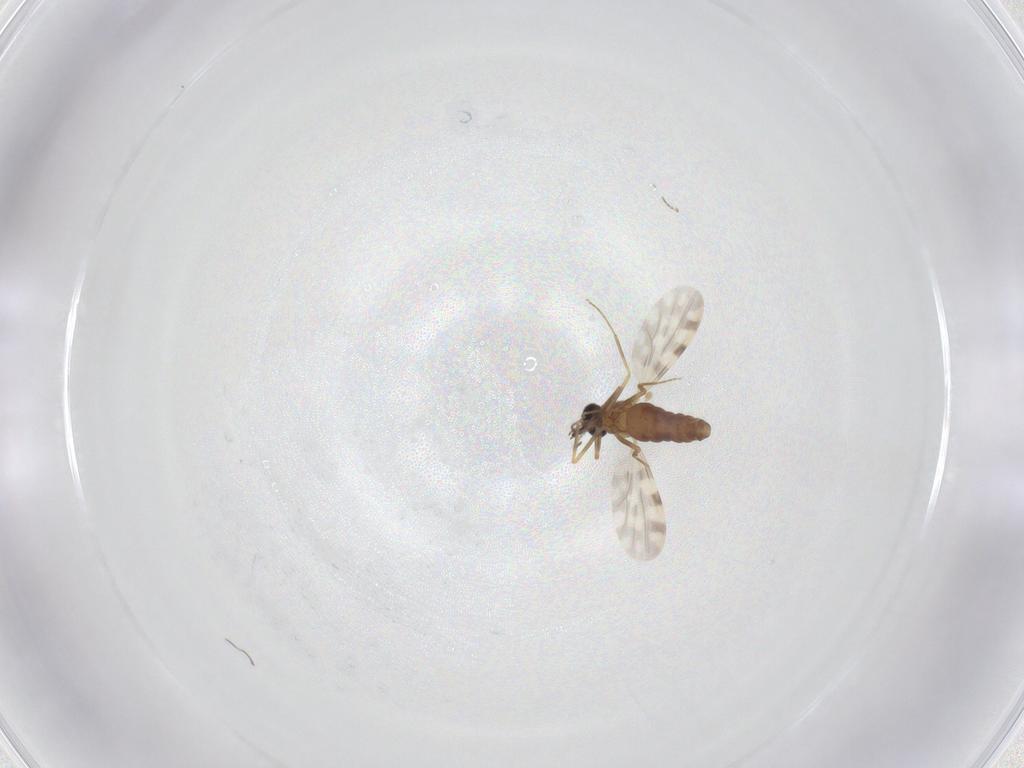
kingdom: Animalia
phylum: Arthropoda
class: Insecta
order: Diptera
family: Ceratopogonidae
